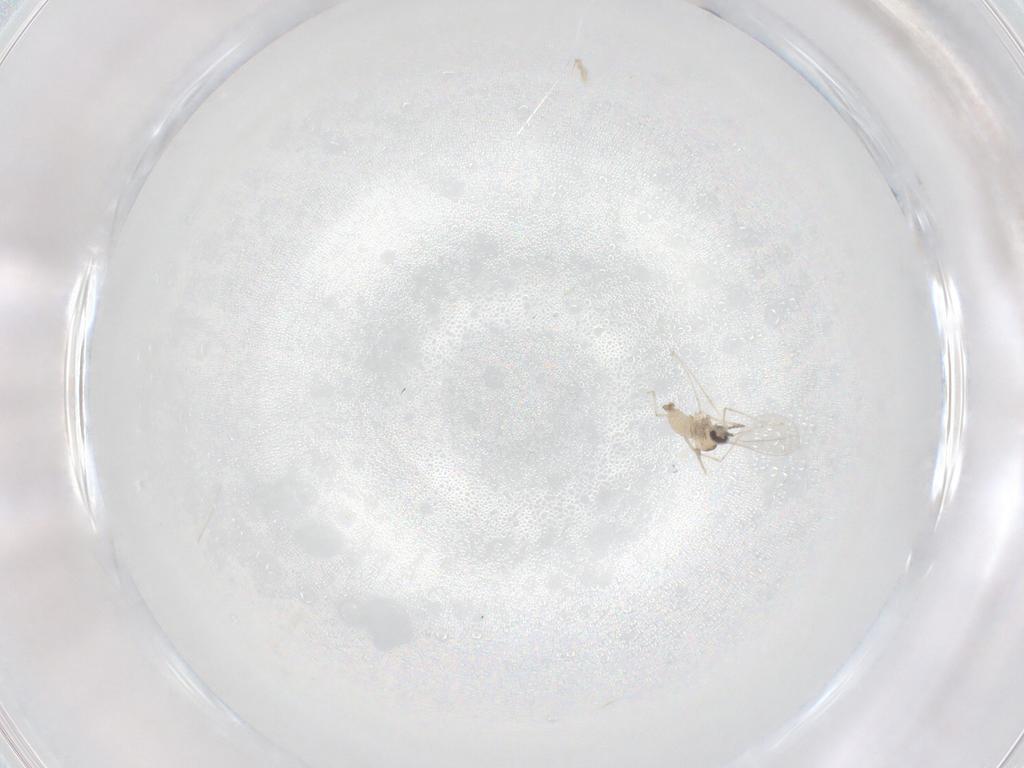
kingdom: Animalia
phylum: Arthropoda
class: Insecta
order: Diptera
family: Cecidomyiidae
